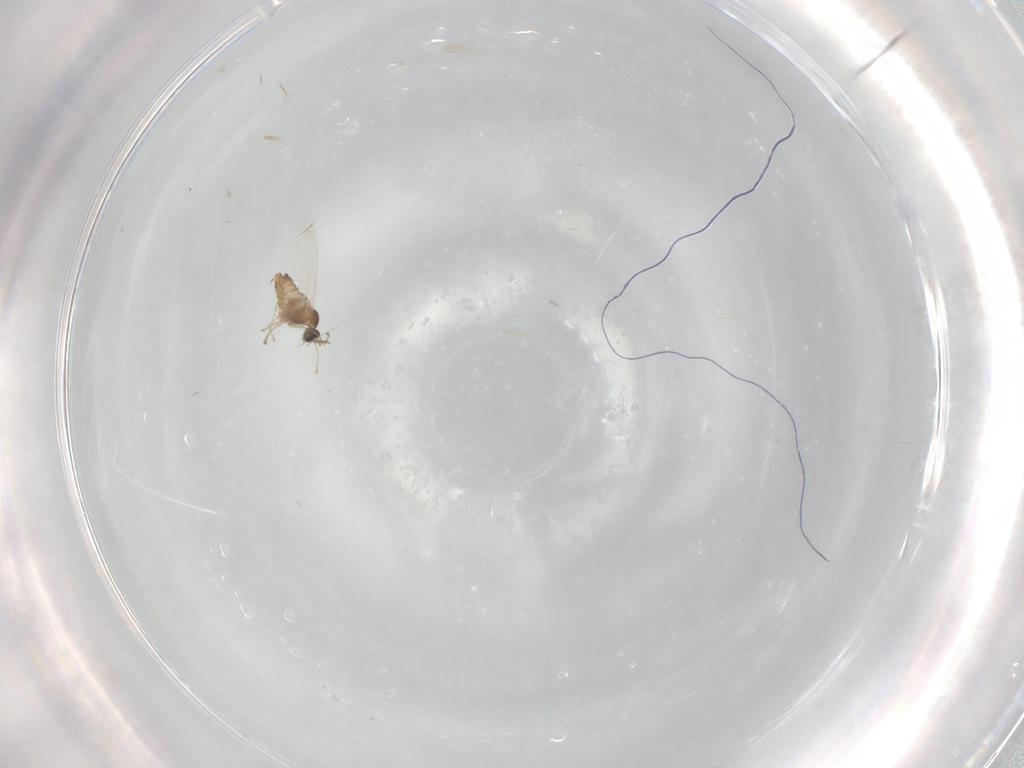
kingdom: Animalia
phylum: Arthropoda
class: Insecta
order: Diptera
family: Cecidomyiidae
